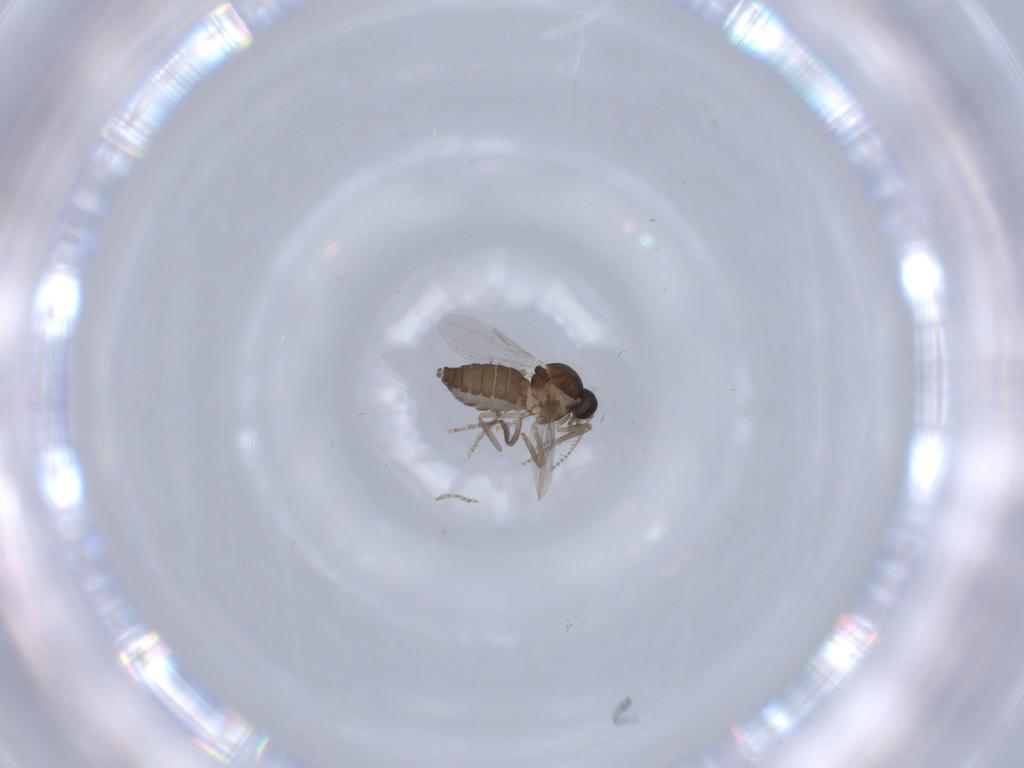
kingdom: Animalia
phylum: Arthropoda
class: Insecta
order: Diptera
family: Ceratopogonidae
